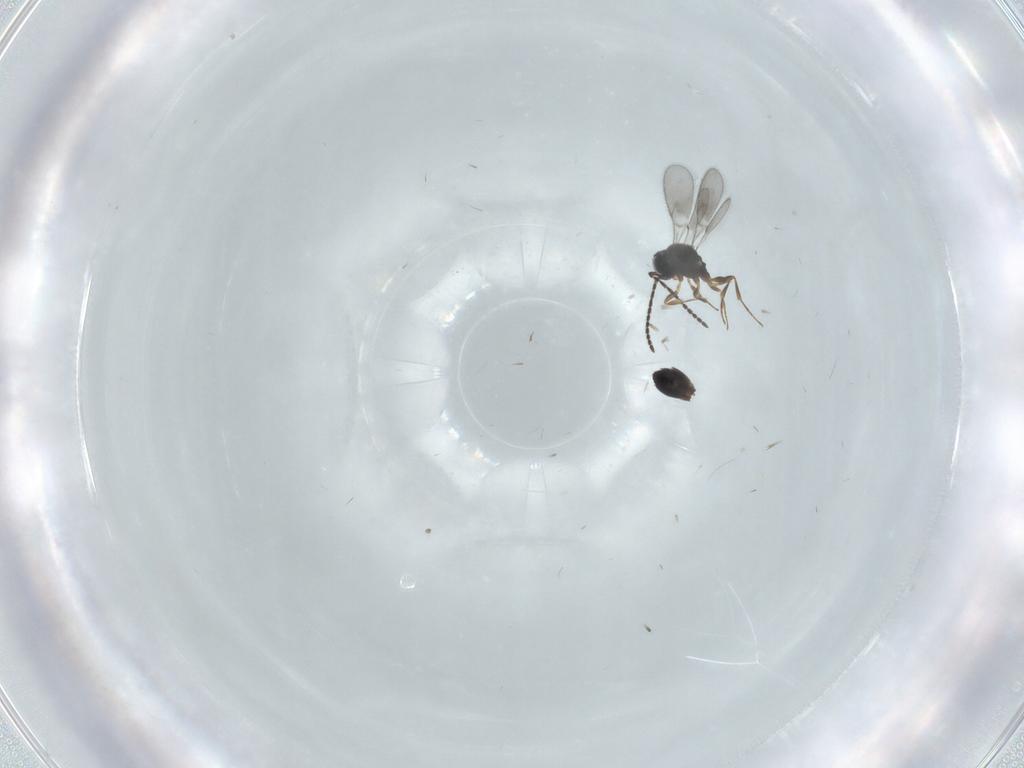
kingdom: Animalia
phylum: Arthropoda
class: Insecta
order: Hymenoptera
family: Scelionidae
